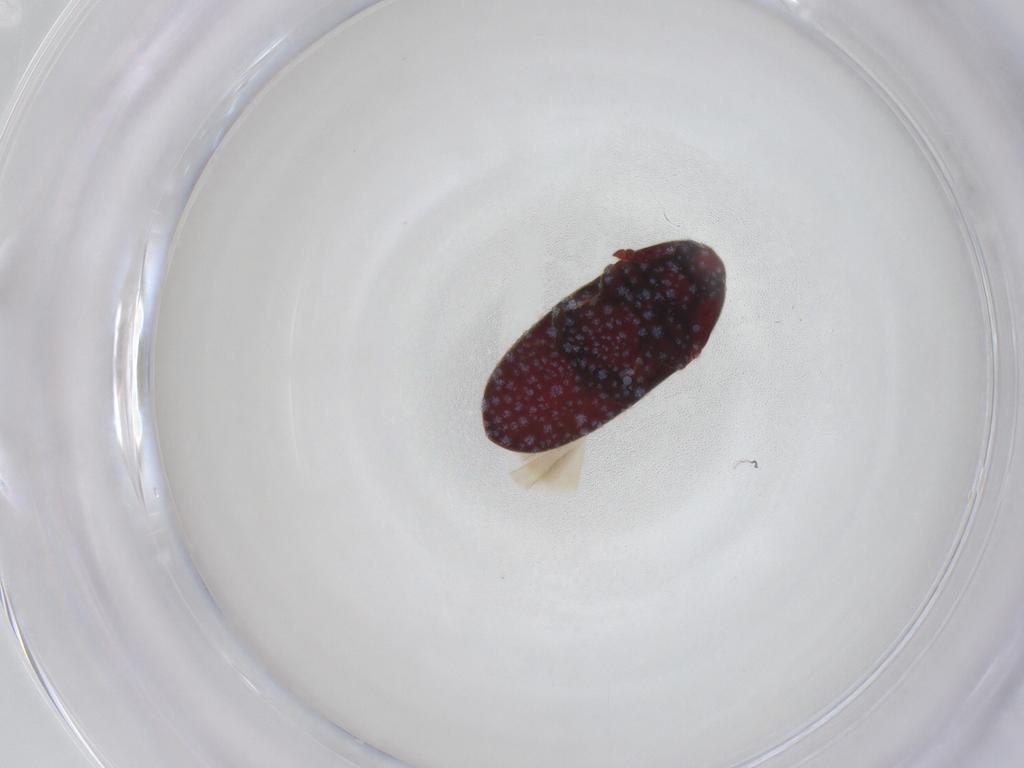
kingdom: Animalia
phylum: Arthropoda
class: Insecta
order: Coleoptera
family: Throscidae
